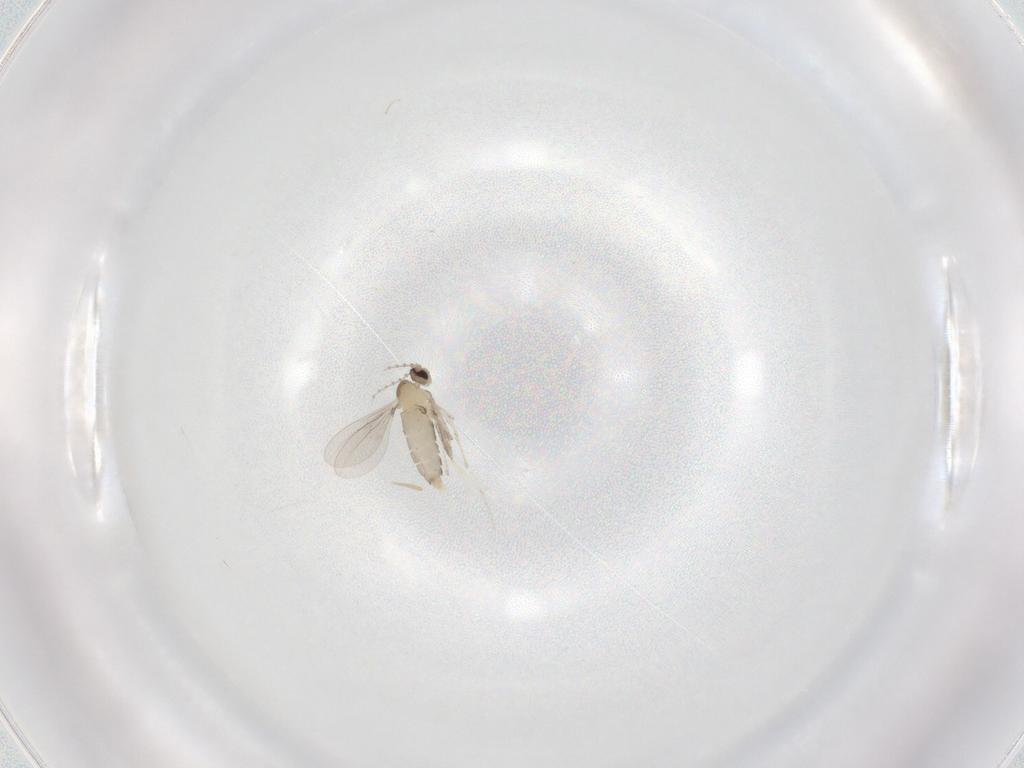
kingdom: Animalia
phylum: Arthropoda
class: Insecta
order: Diptera
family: Cecidomyiidae
